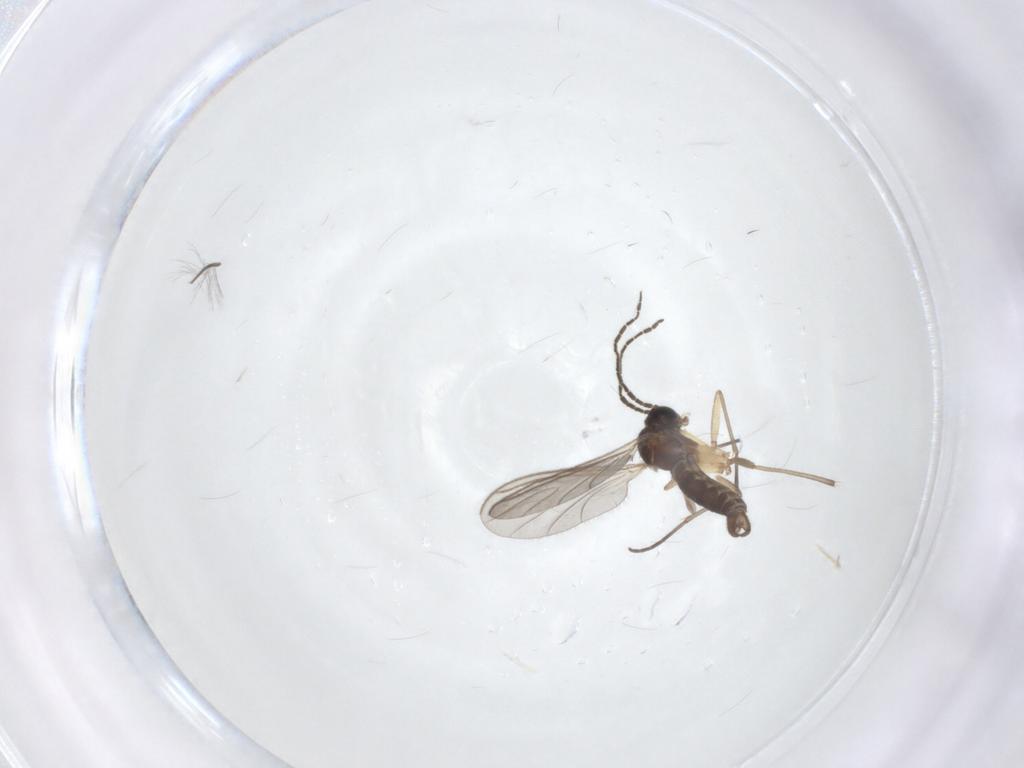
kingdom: Animalia
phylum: Arthropoda
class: Insecta
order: Diptera
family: Sciaridae
